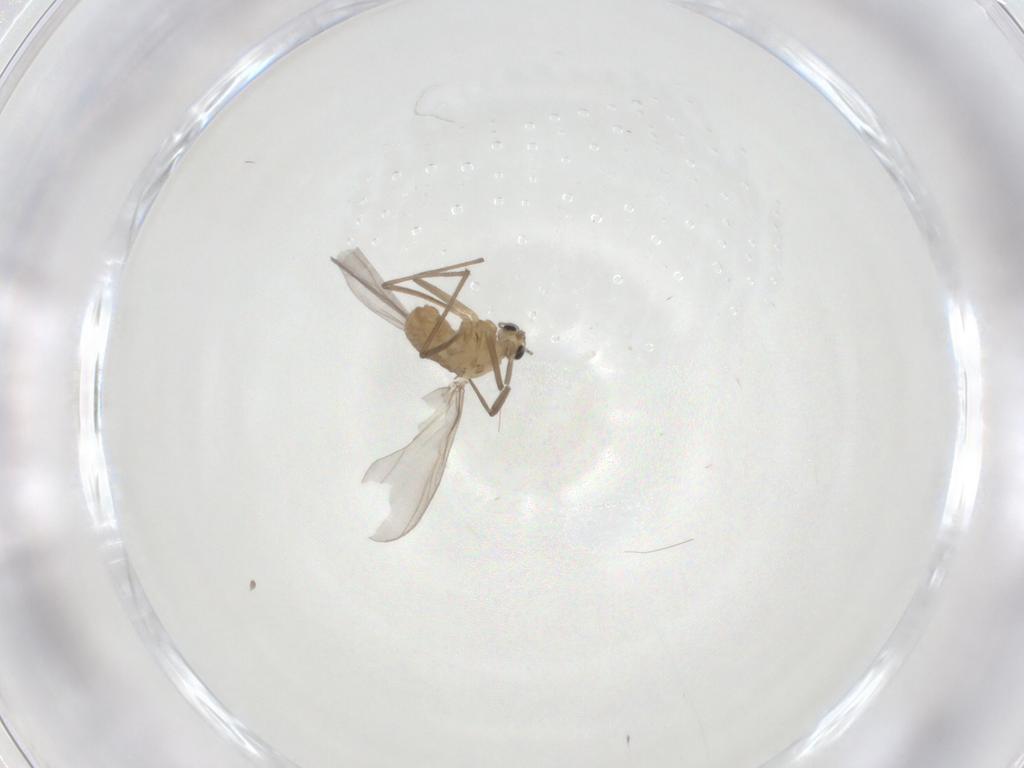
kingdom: Animalia
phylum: Arthropoda
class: Insecta
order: Diptera
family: Chironomidae
